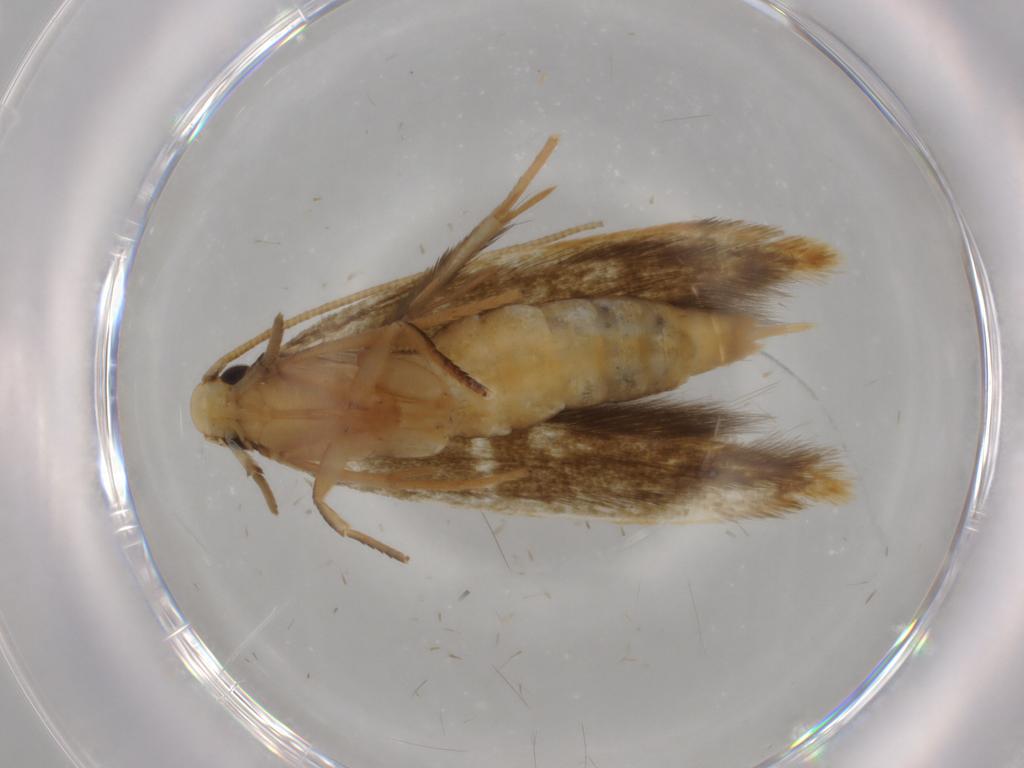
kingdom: Animalia
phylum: Arthropoda
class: Insecta
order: Lepidoptera
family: Tineidae
